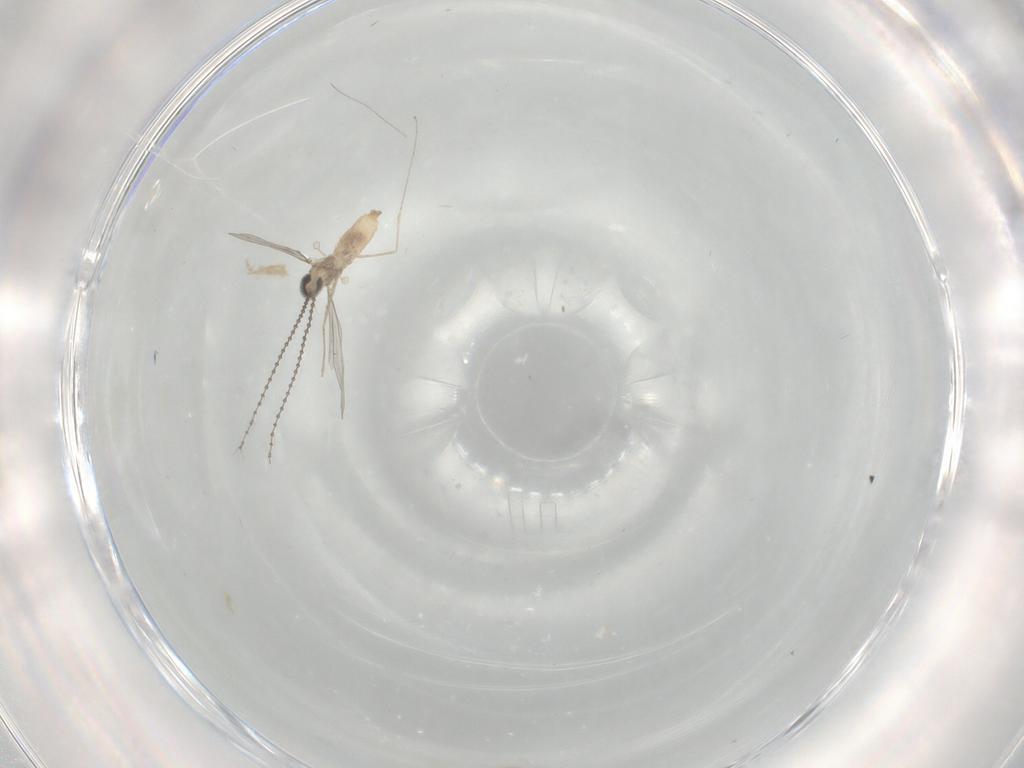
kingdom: Animalia
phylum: Arthropoda
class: Insecta
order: Diptera
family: Cecidomyiidae
